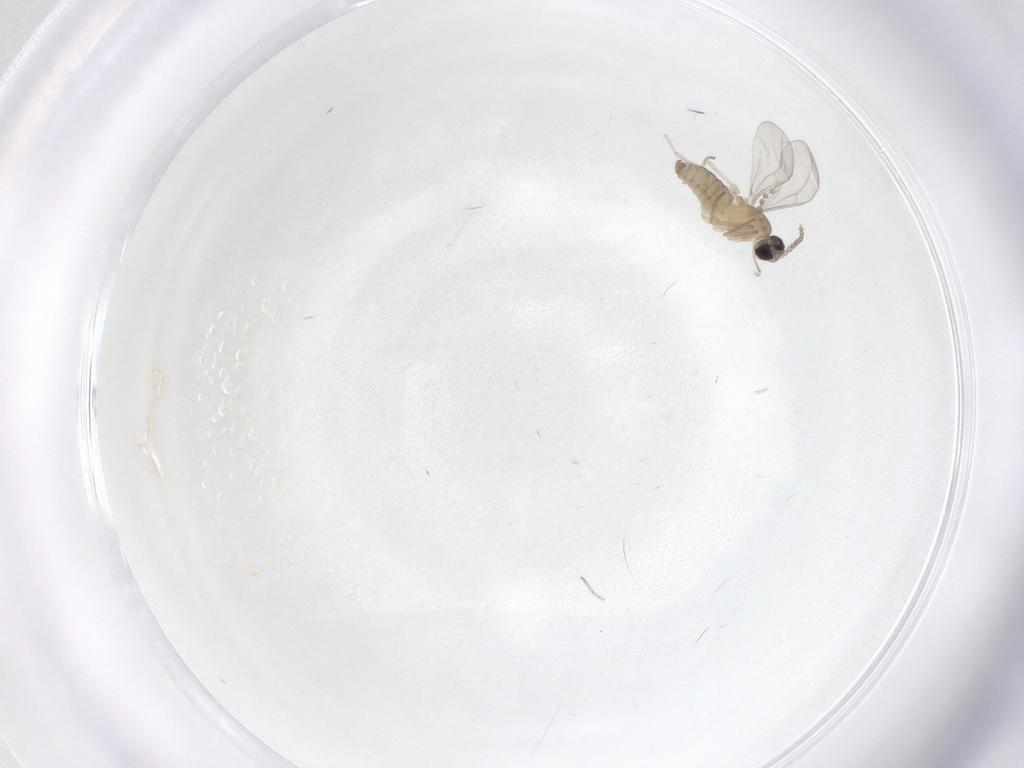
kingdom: Animalia
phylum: Arthropoda
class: Insecta
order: Diptera
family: Cecidomyiidae
